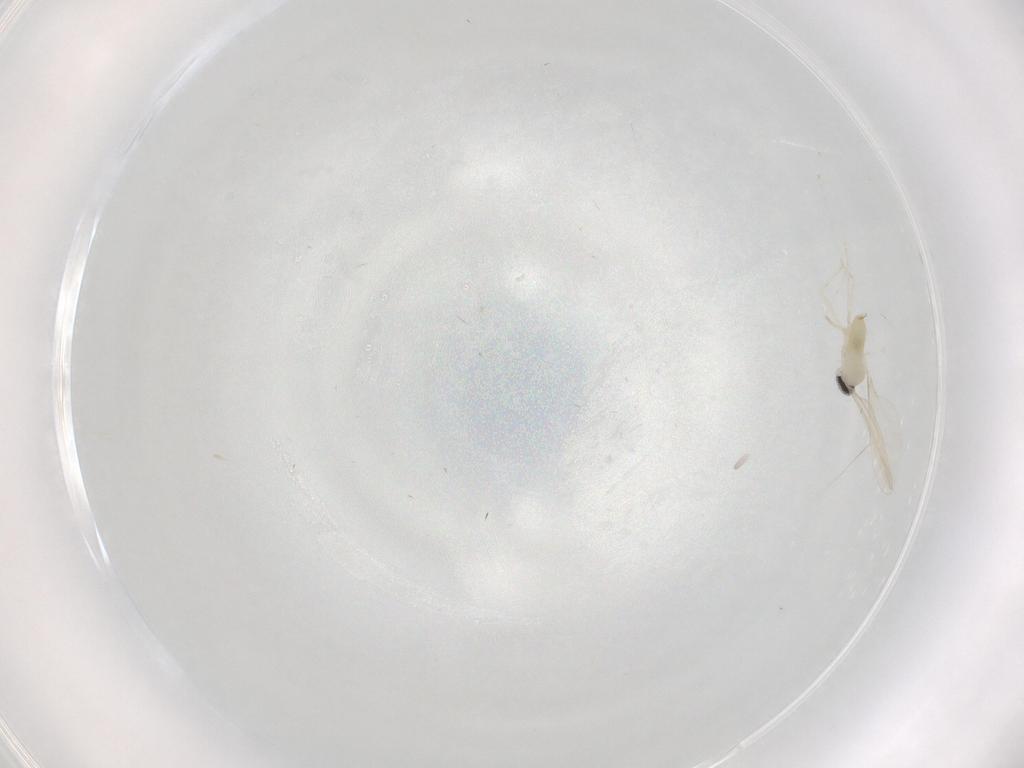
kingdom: Animalia
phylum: Arthropoda
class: Insecta
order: Diptera
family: Cecidomyiidae
